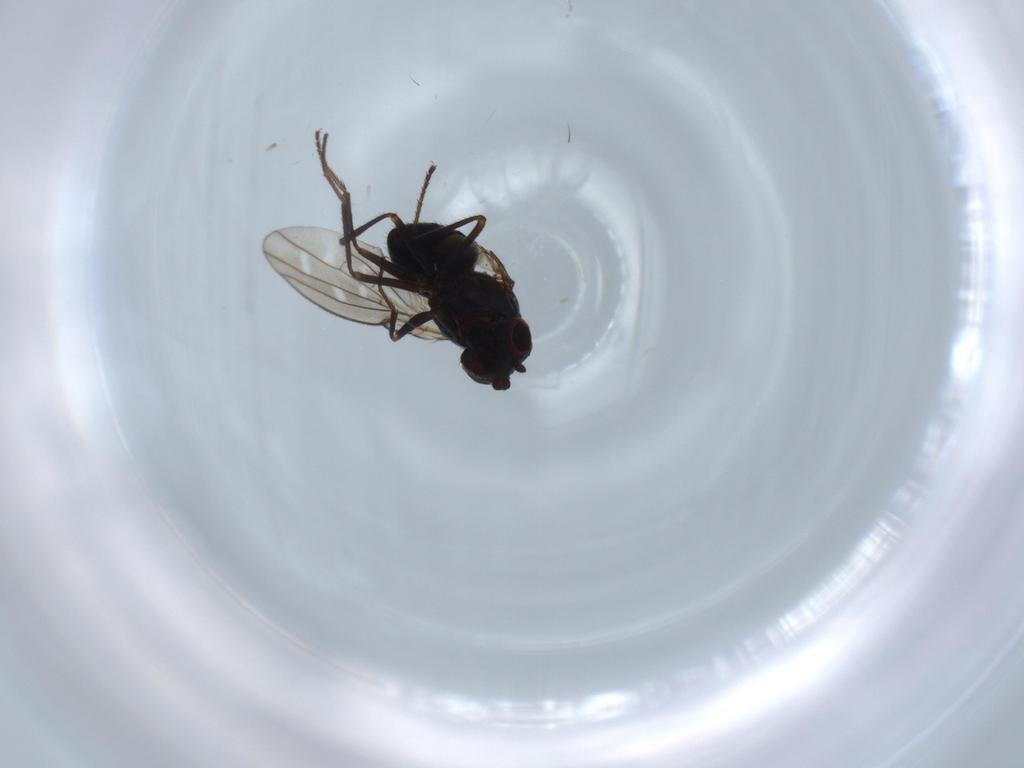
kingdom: Animalia
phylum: Arthropoda
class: Insecta
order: Diptera
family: Ephydridae
